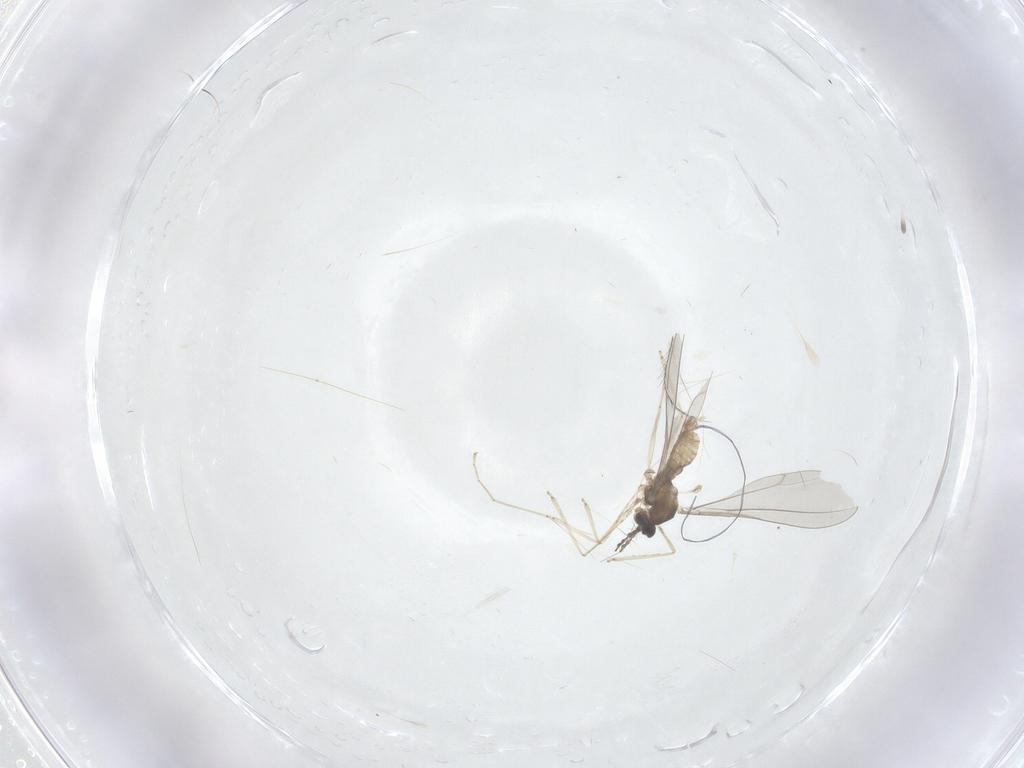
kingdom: Animalia
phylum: Arthropoda
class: Insecta
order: Diptera
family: Cecidomyiidae
